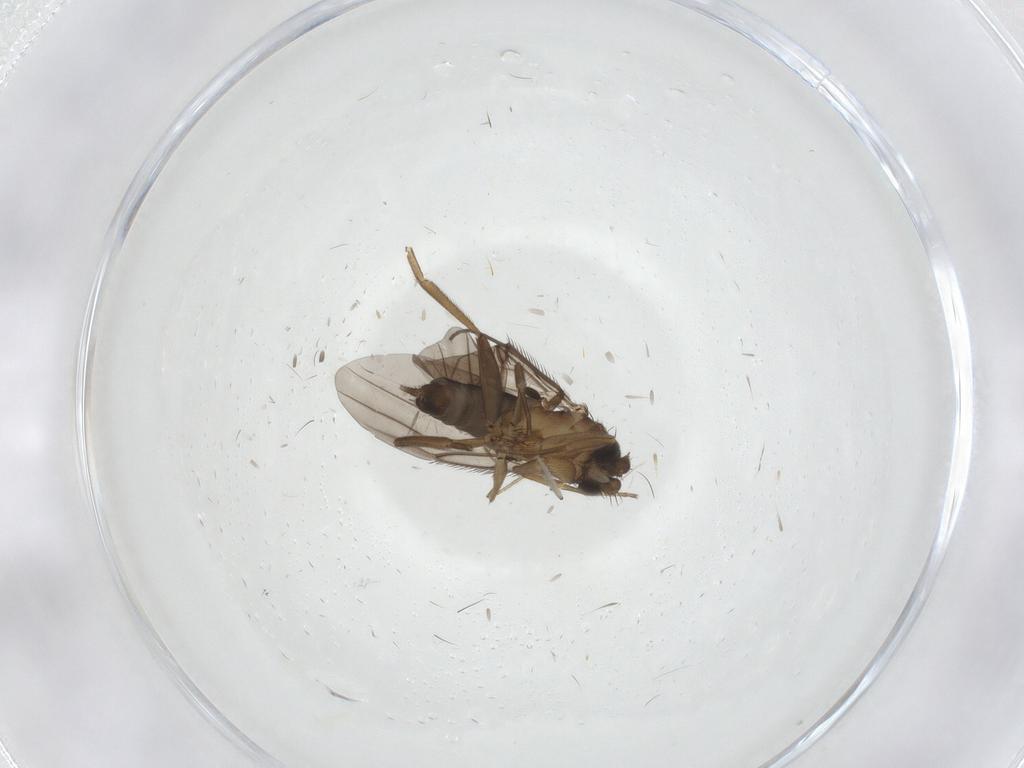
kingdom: Animalia
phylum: Arthropoda
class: Insecta
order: Diptera
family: Sciaridae
